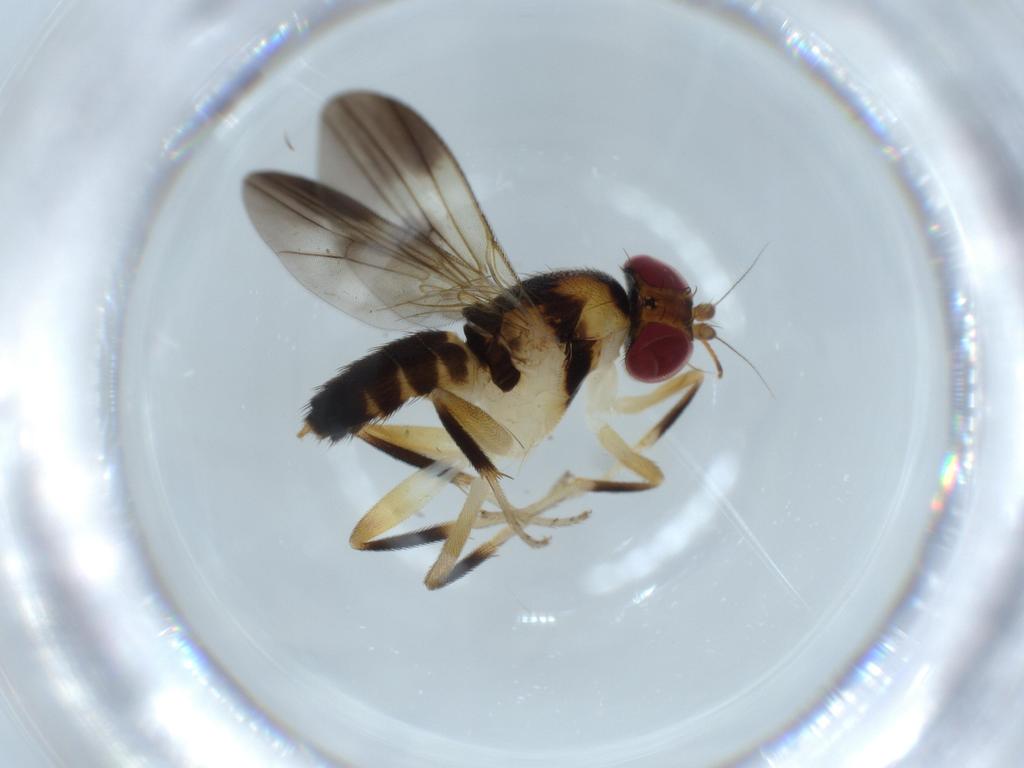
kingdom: Animalia
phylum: Arthropoda
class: Insecta
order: Diptera
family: Clusiidae
